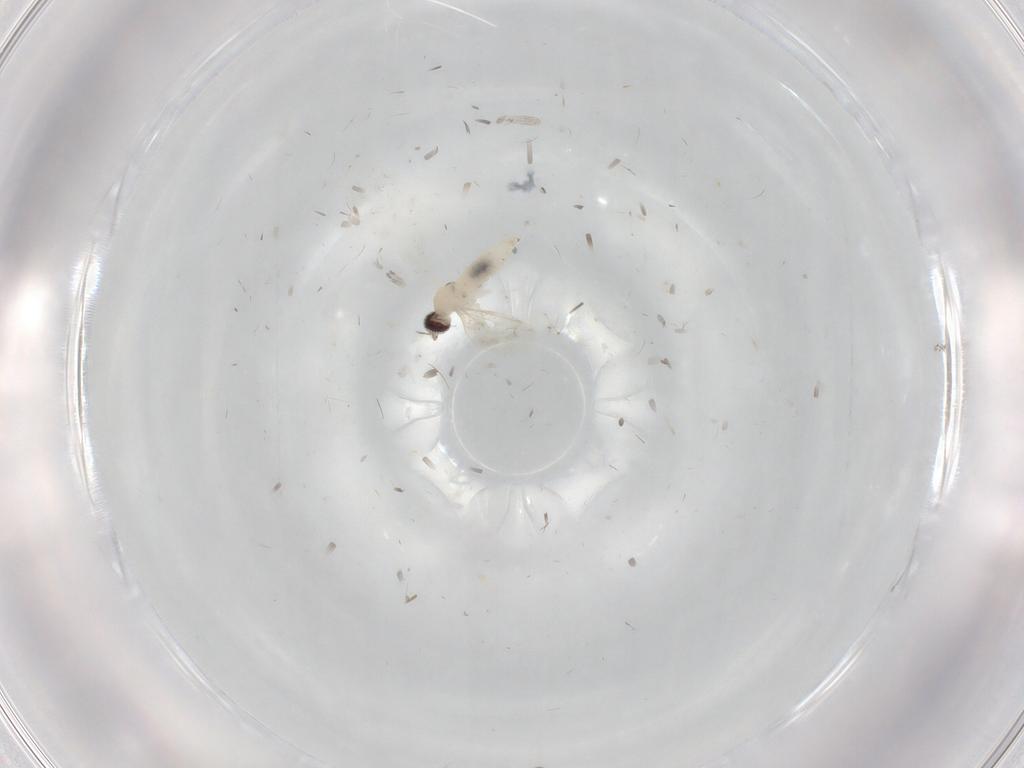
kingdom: Animalia
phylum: Arthropoda
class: Insecta
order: Diptera
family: Cecidomyiidae
